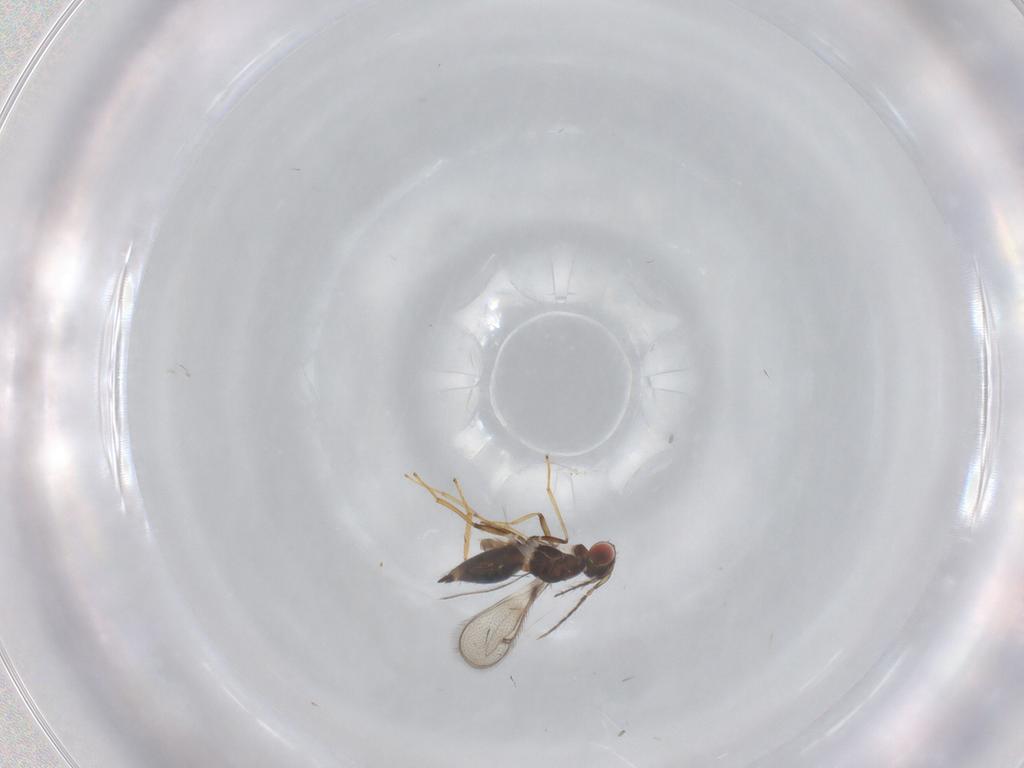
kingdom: Animalia
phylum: Arthropoda
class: Insecta
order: Hymenoptera
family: Eulophidae
